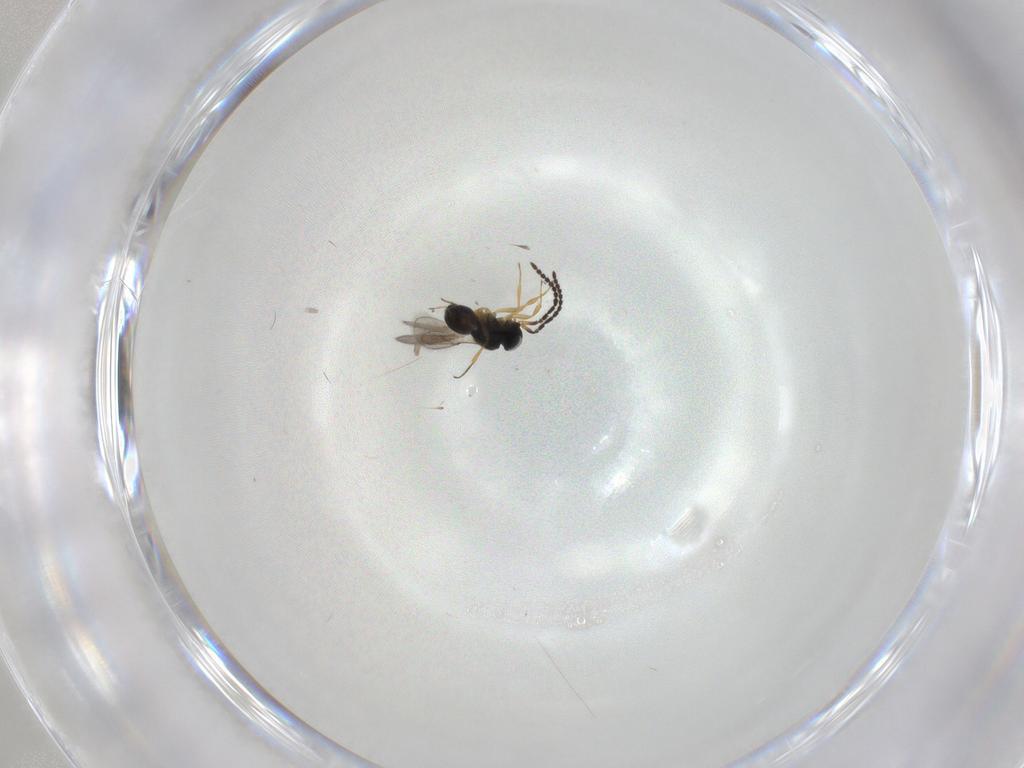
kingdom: Animalia
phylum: Arthropoda
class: Insecta
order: Hymenoptera
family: Scelionidae
